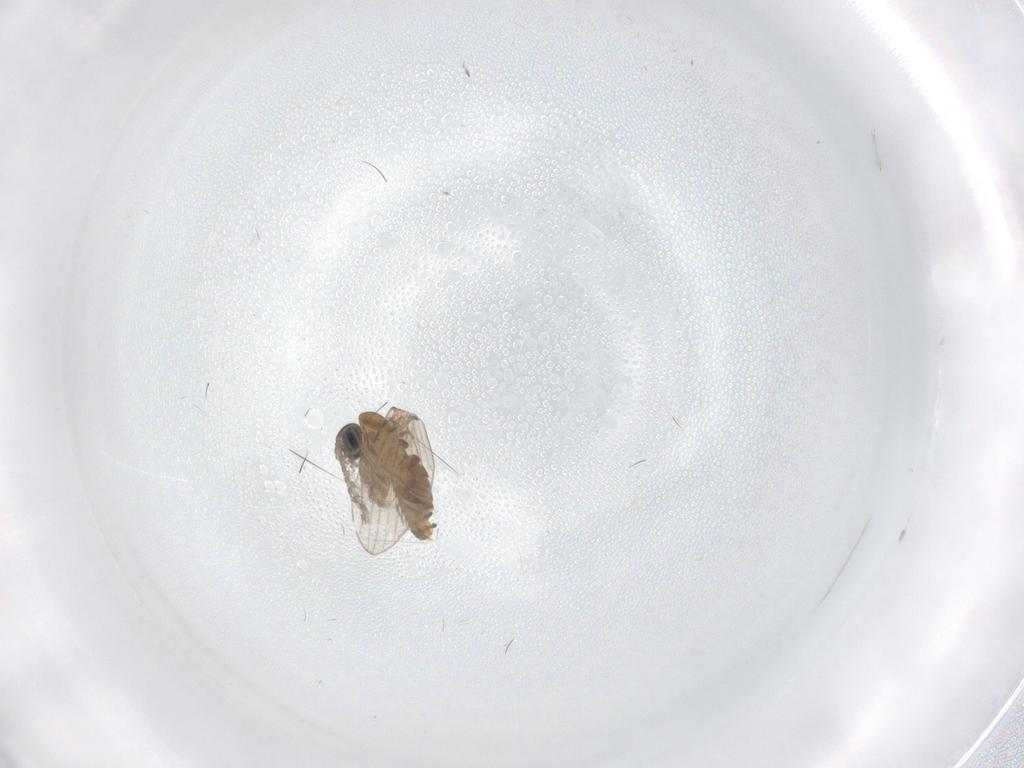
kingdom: Animalia
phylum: Arthropoda
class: Insecta
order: Diptera
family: Psychodidae
